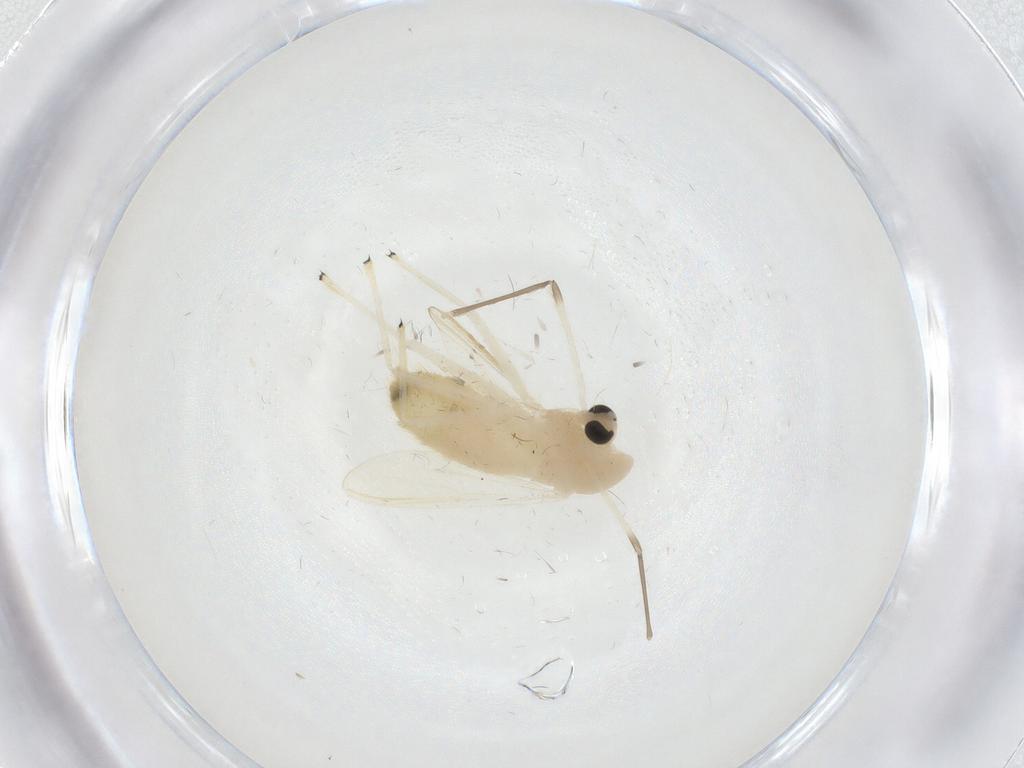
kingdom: Animalia
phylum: Arthropoda
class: Insecta
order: Diptera
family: Chironomidae
